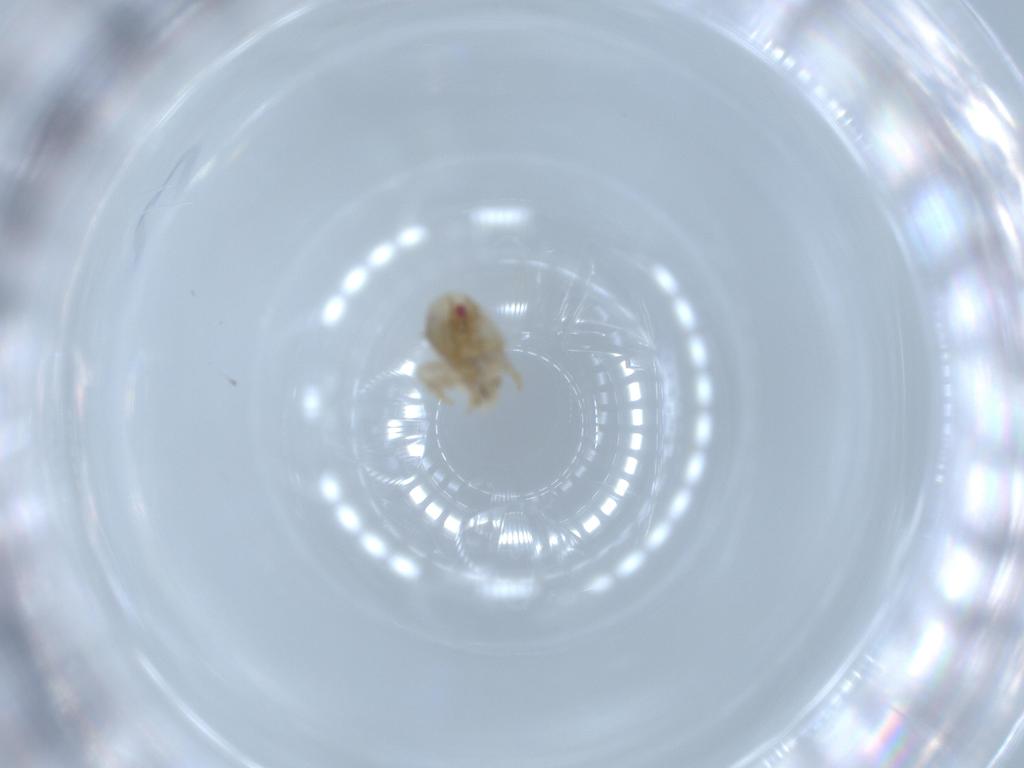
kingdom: Animalia
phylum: Arthropoda
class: Insecta
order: Hemiptera
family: Acanaloniidae
